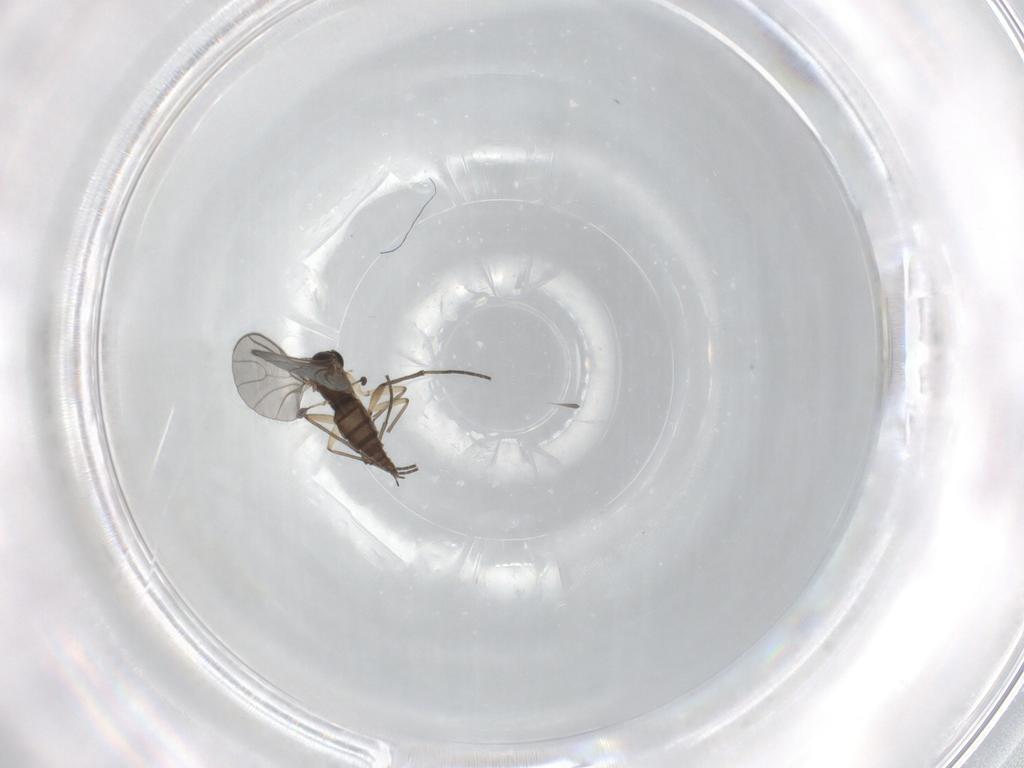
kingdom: Animalia
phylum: Arthropoda
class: Insecta
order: Diptera
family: Sciaridae
